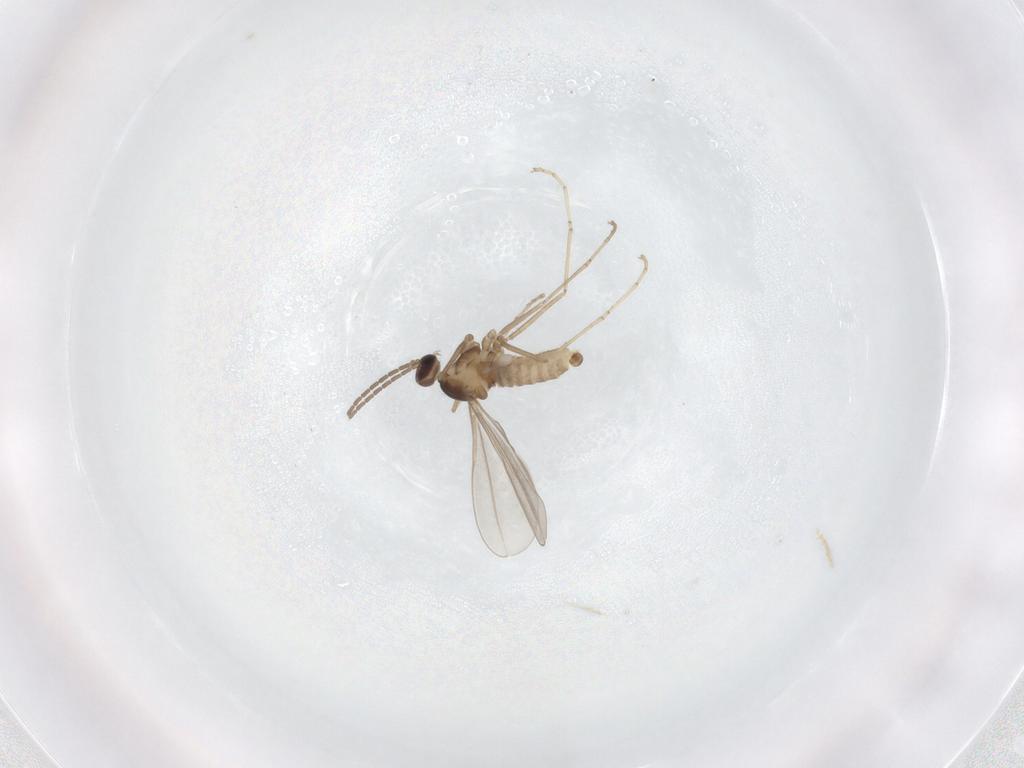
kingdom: Animalia
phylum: Arthropoda
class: Insecta
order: Diptera
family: Cecidomyiidae
